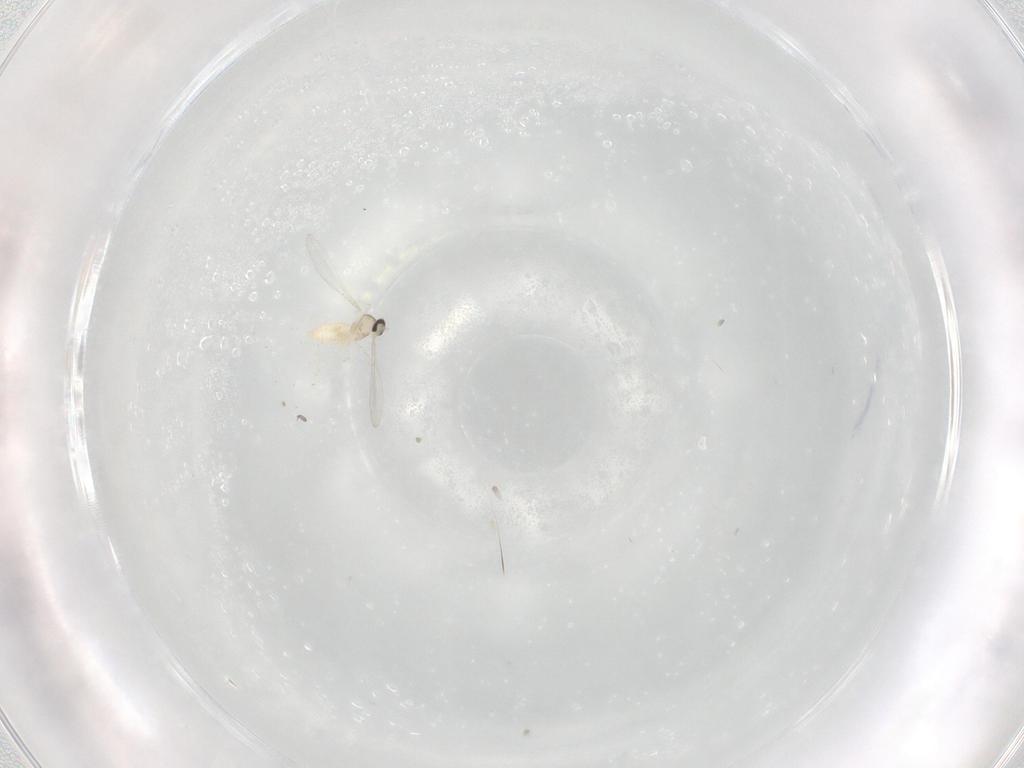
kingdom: Animalia
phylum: Arthropoda
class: Insecta
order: Diptera
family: Cecidomyiidae
